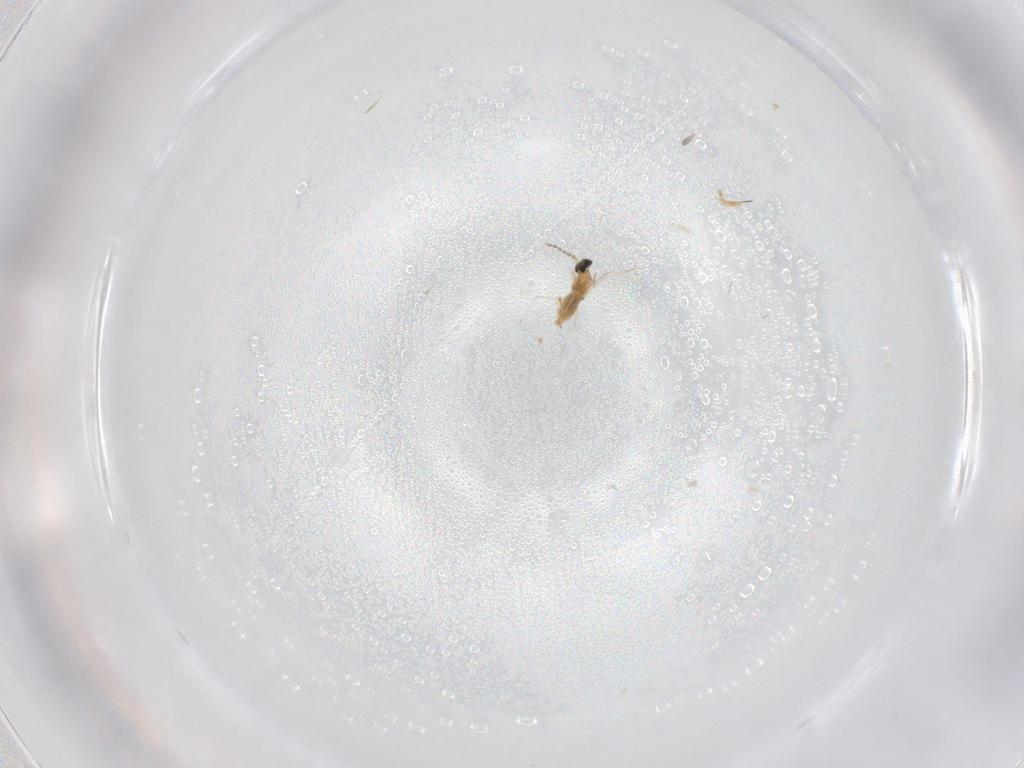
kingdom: Animalia
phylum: Arthropoda
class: Insecta
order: Diptera
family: Cecidomyiidae
